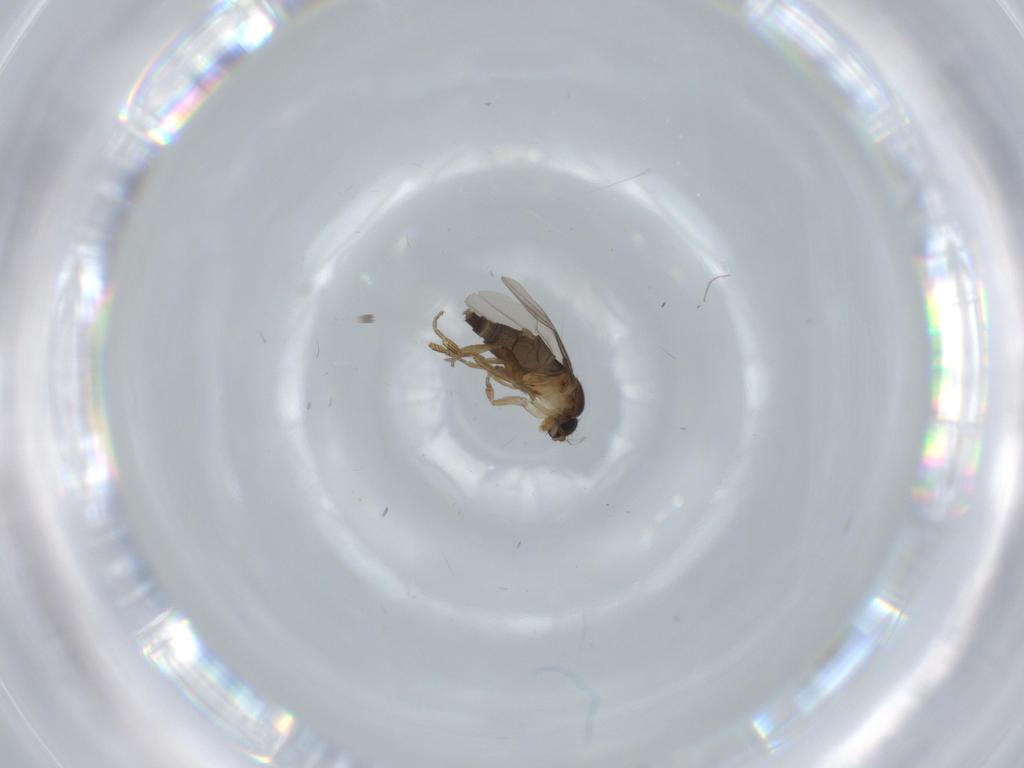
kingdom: Animalia
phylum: Arthropoda
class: Insecta
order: Diptera
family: Phoridae
